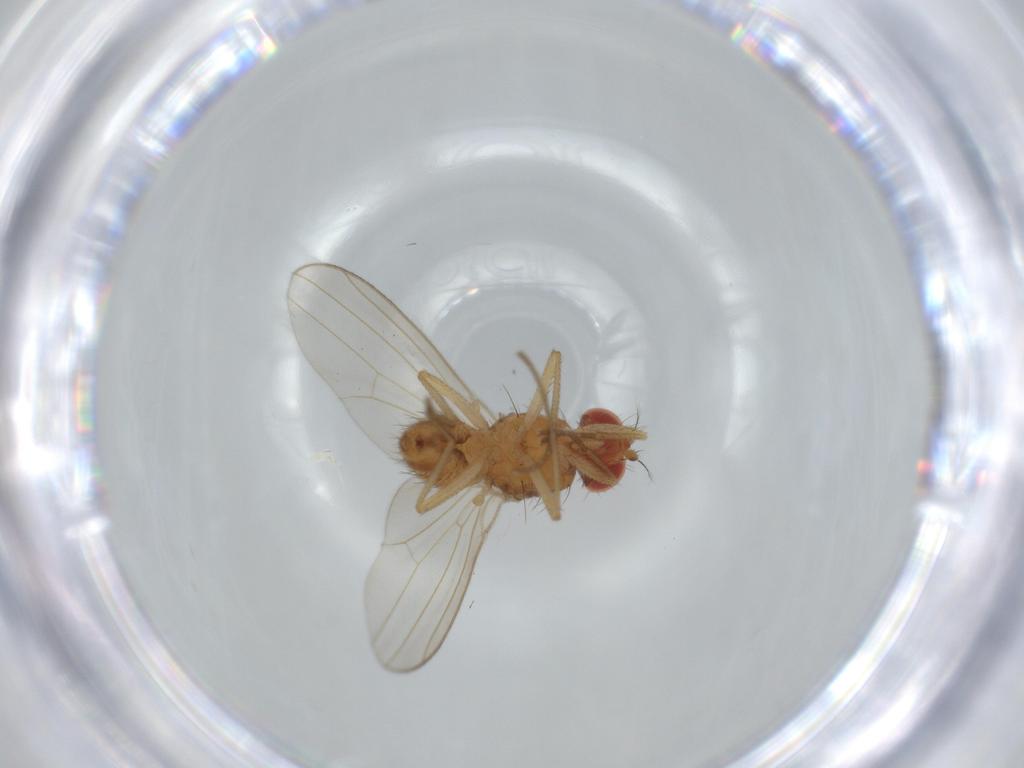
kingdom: Animalia
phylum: Arthropoda
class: Insecta
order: Diptera
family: Drosophilidae
